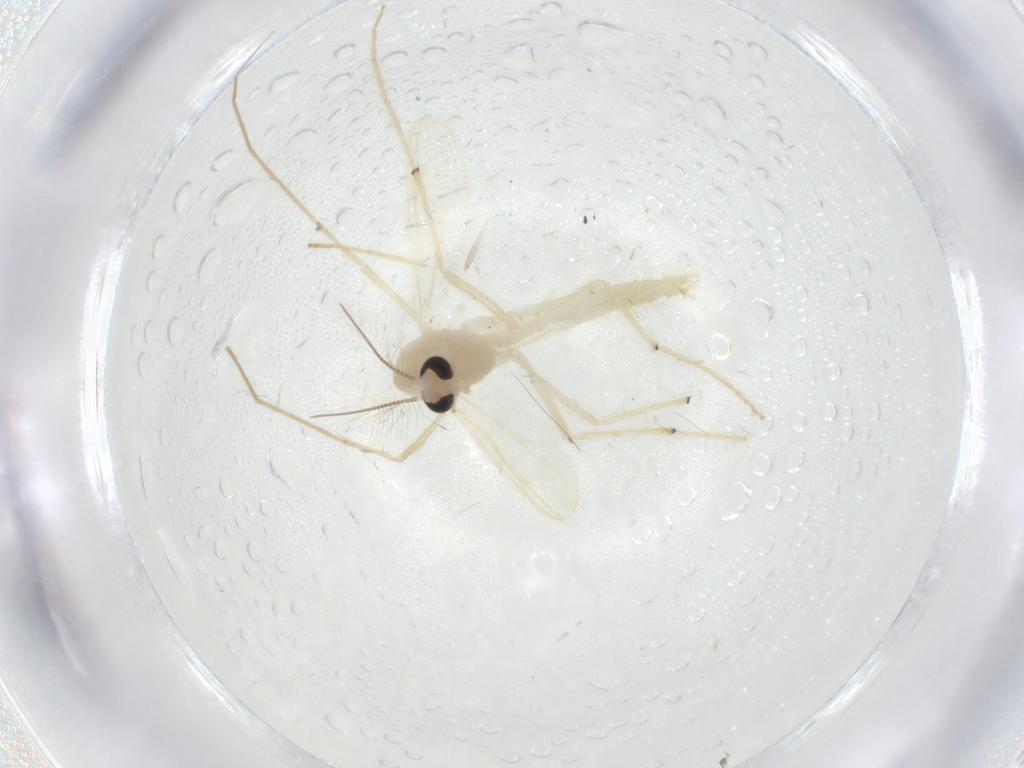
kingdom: Animalia
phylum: Arthropoda
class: Insecta
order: Diptera
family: Chironomidae
